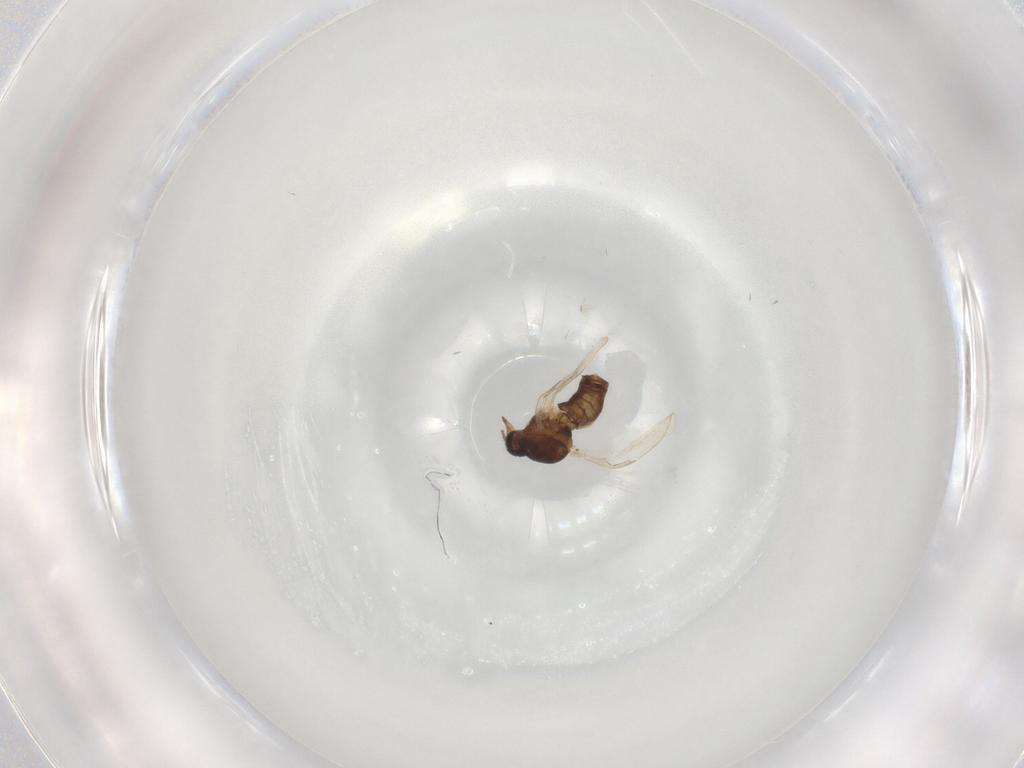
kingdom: Animalia
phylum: Arthropoda
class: Insecta
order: Diptera
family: Ceratopogonidae
